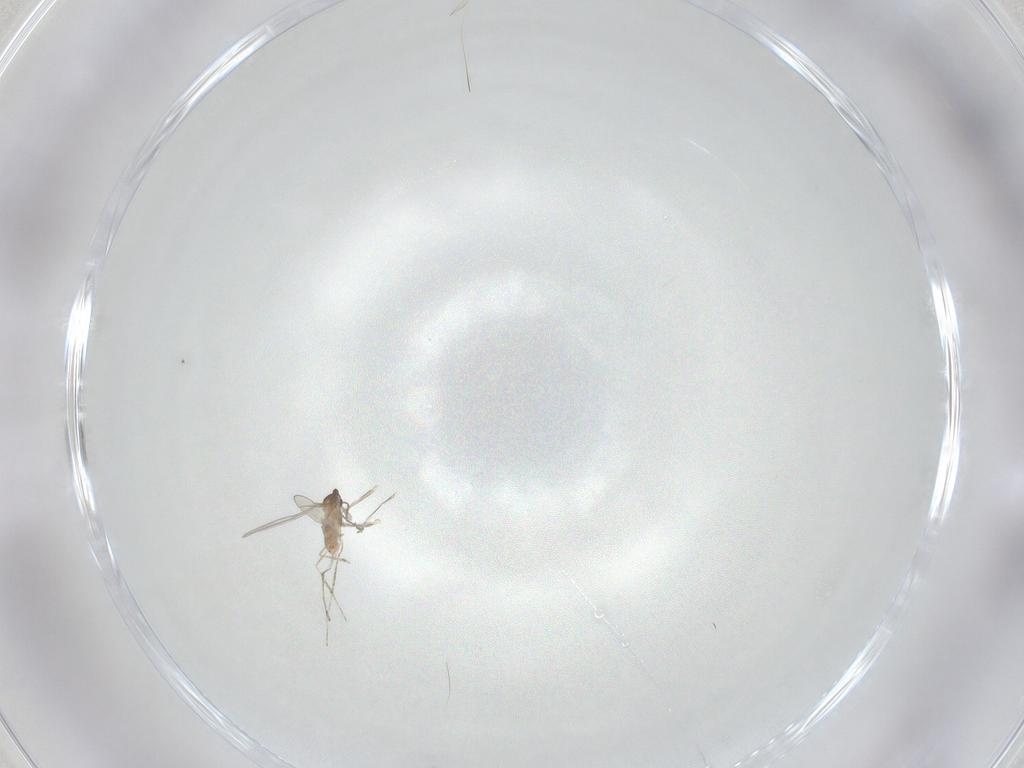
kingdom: Animalia
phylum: Arthropoda
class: Insecta
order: Diptera
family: Cecidomyiidae
